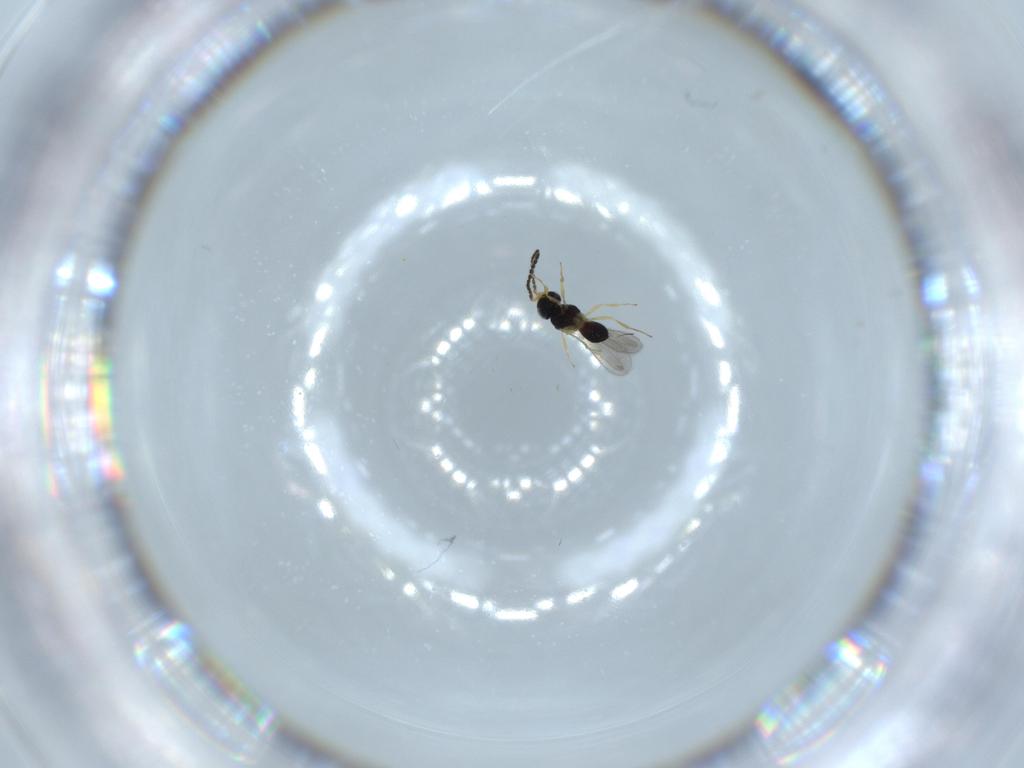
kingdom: Animalia
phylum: Arthropoda
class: Insecta
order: Hymenoptera
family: Scelionidae
